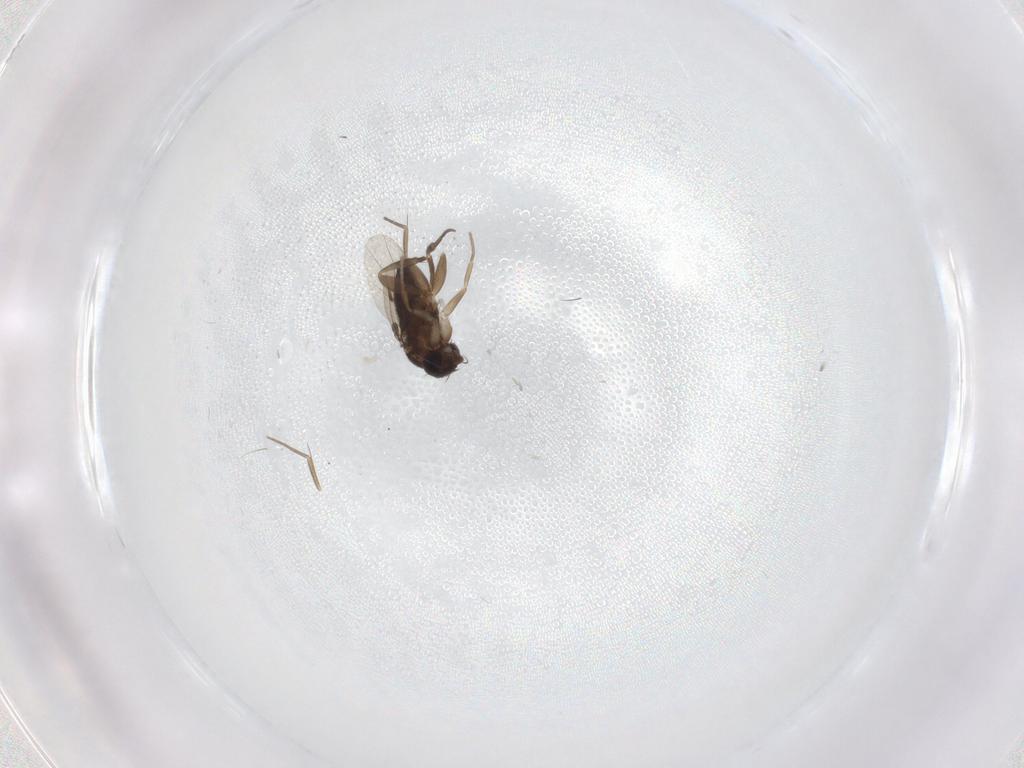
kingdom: Animalia
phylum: Arthropoda
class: Insecta
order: Diptera
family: Phoridae
